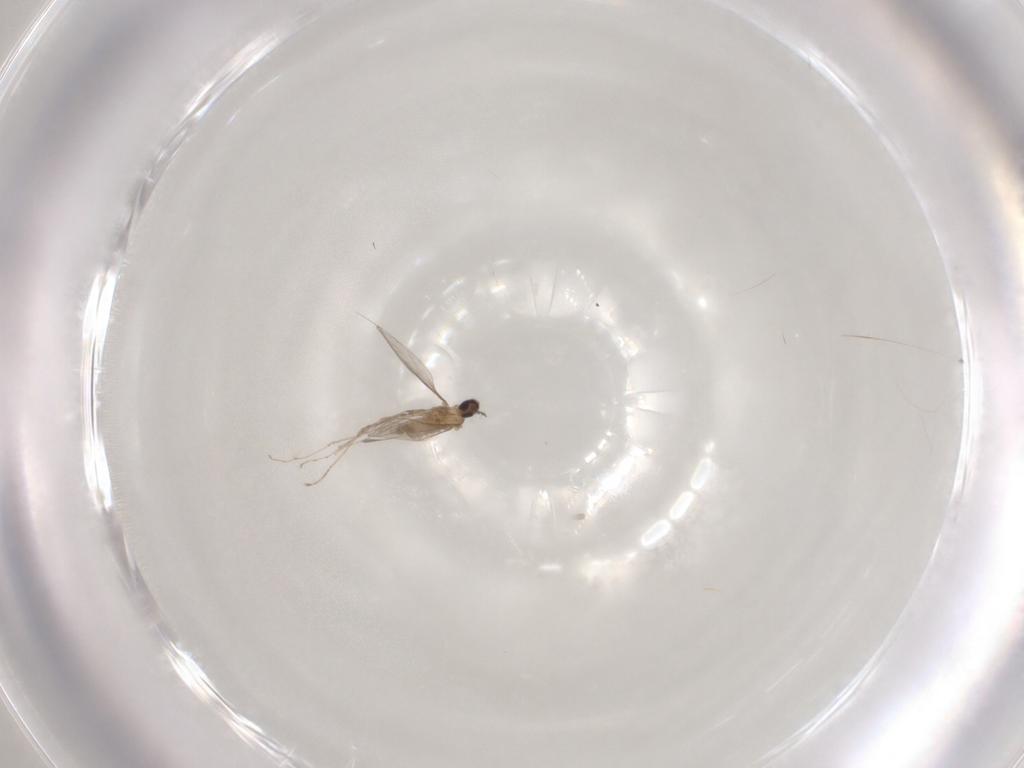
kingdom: Animalia
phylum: Arthropoda
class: Insecta
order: Diptera
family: Cecidomyiidae
